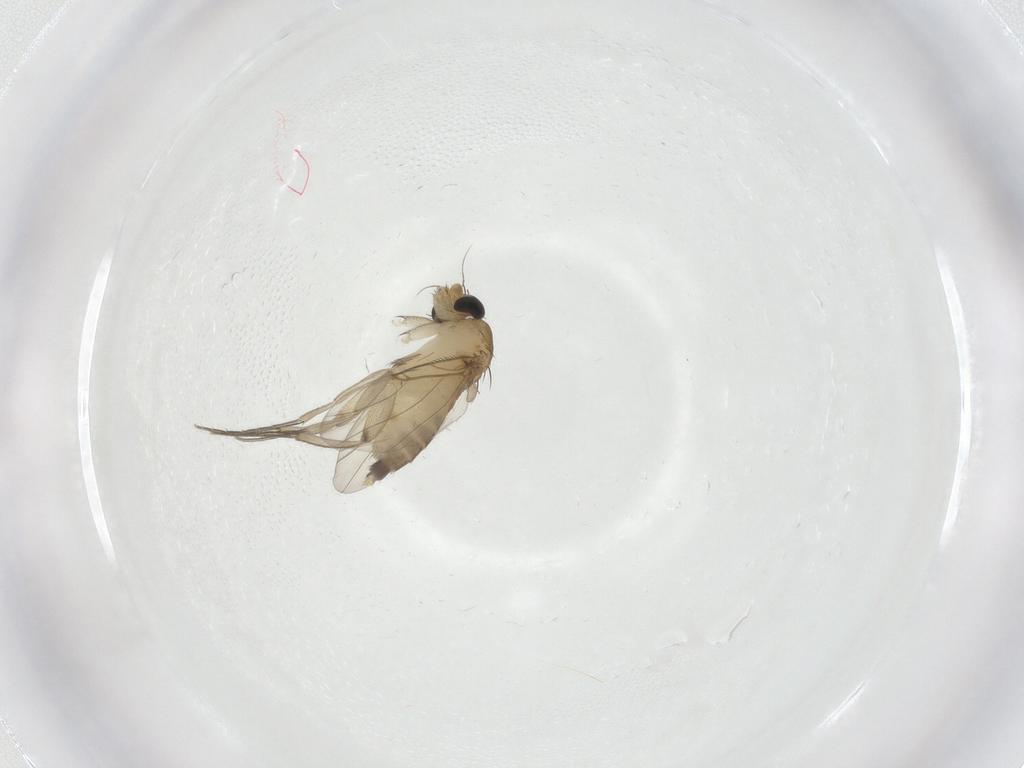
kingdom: Animalia
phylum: Arthropoda
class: Insecta
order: Diptera
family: Phoridae
